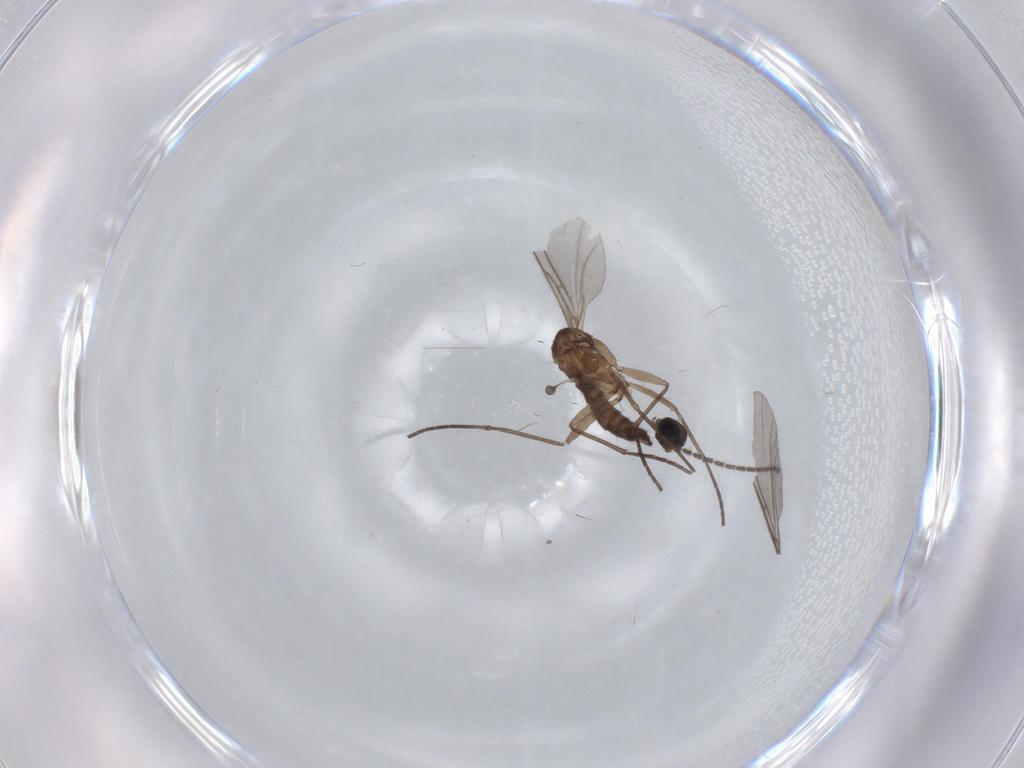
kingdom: Animalia
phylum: Arthropoda
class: Insecta
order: Diptera
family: Sciaridae
